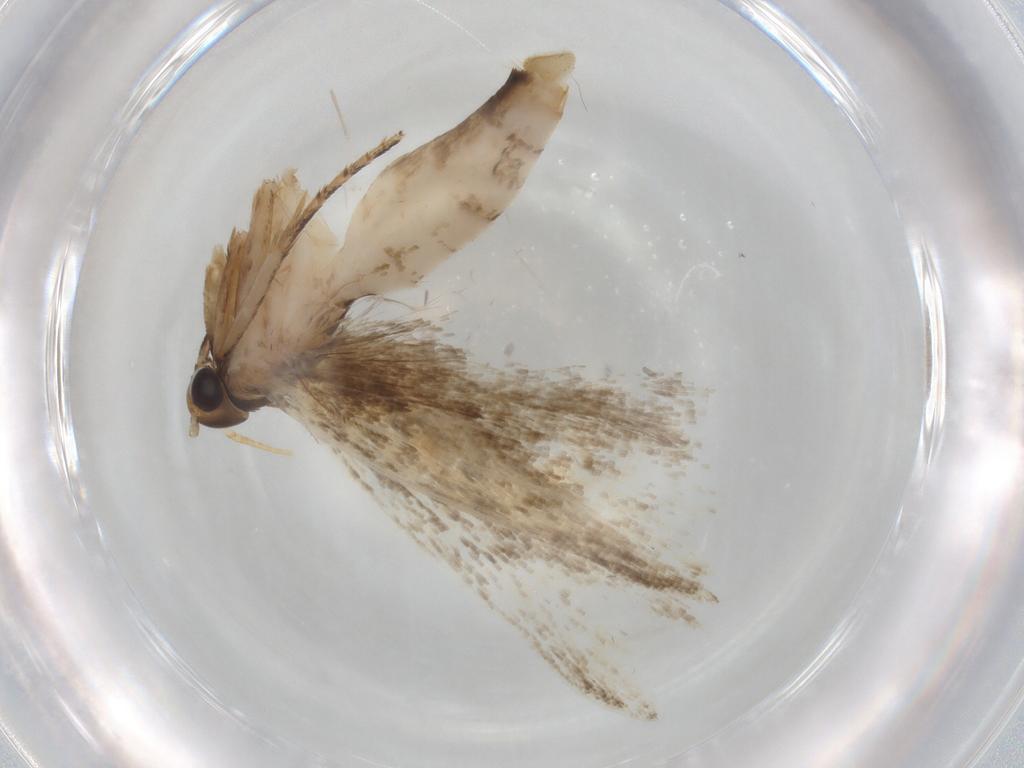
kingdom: Animalia
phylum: Arthropoda
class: Insecta
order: Lepidoptera
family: Gelechiidae
